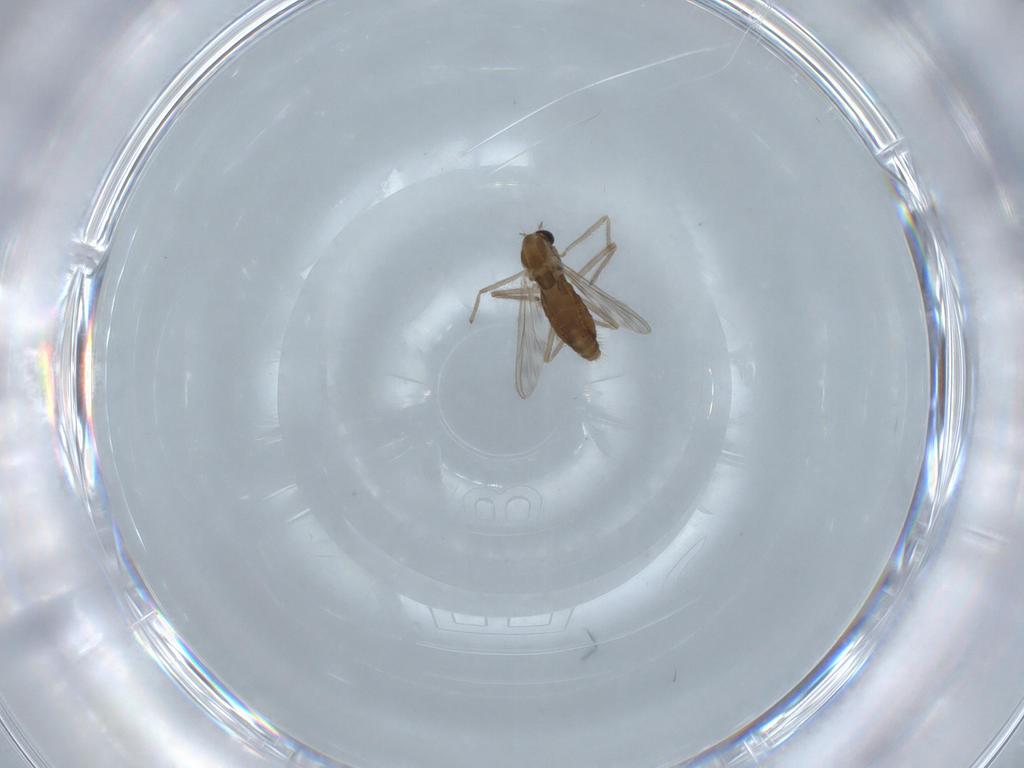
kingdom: Animalia
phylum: Arthropoda
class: Insecta
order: Diptera
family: Chironomidae
